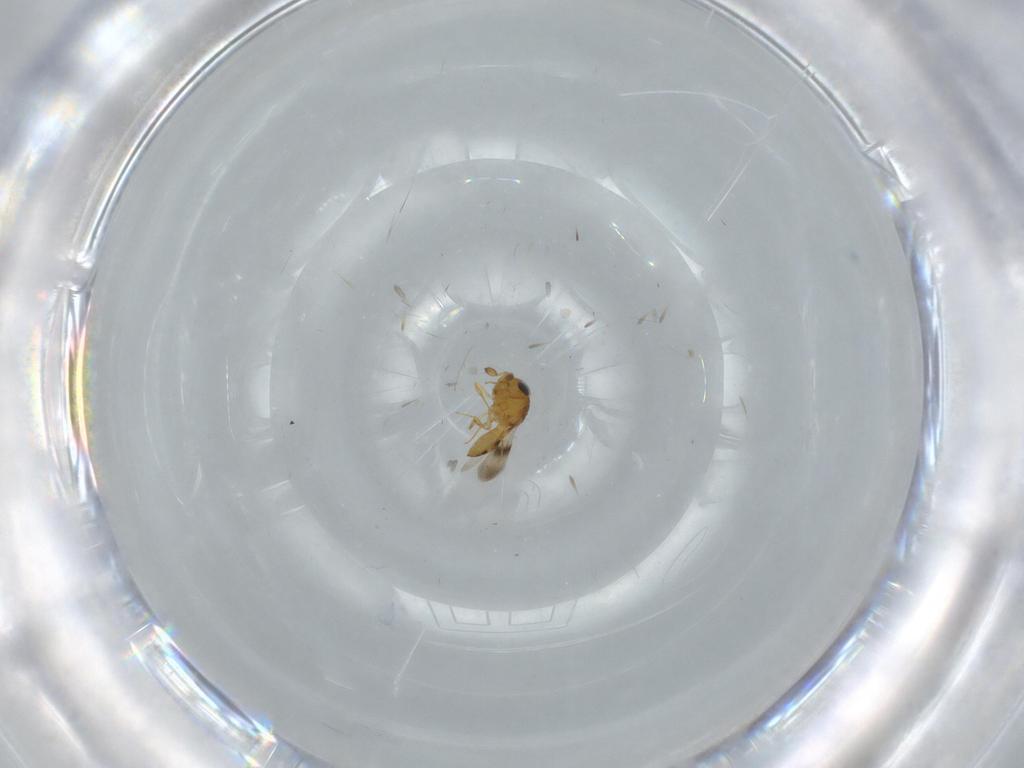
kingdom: Animalia
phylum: Arthropoda
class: Insecta
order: Hymenoptera
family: Scelionidae
